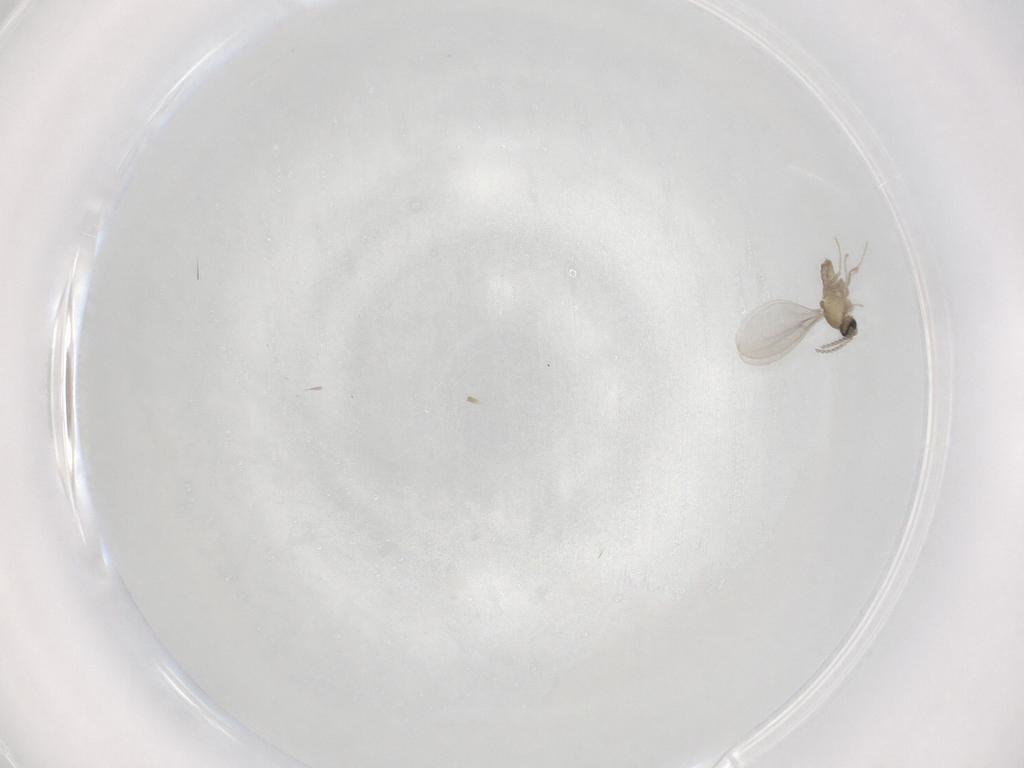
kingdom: Animalia
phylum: Arthropoda
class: Insecta
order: Diptera
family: Cecidomyiidae
